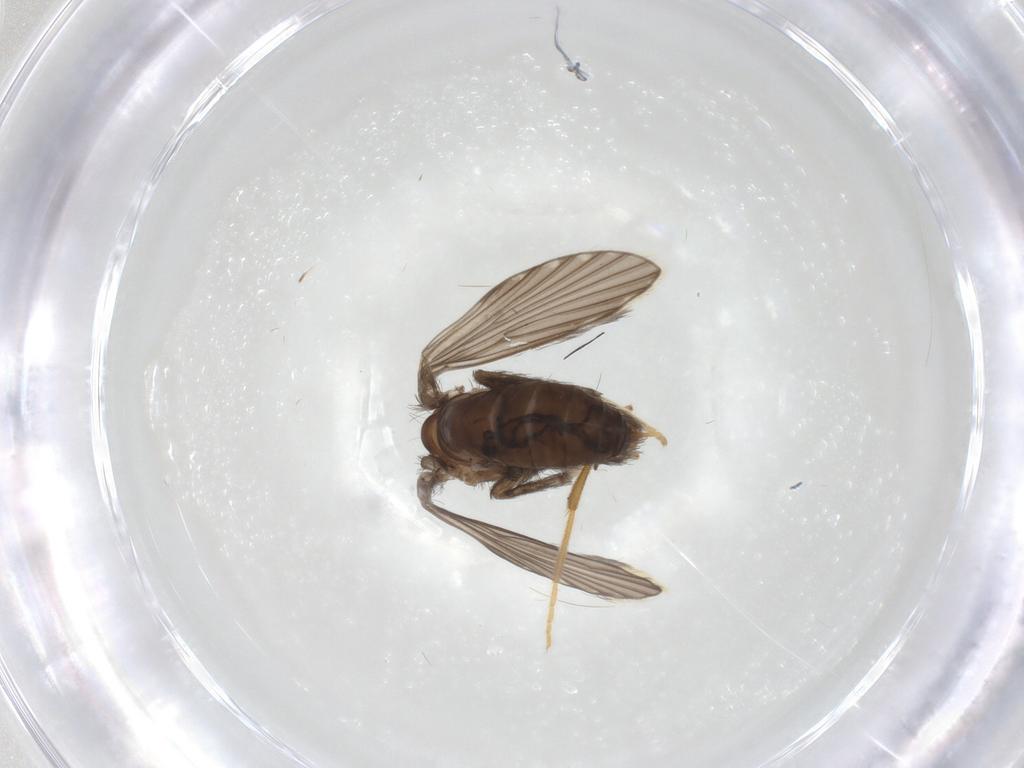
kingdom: Animalia
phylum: Arthropoda
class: Insecta
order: Diptera
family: Psychodidae
